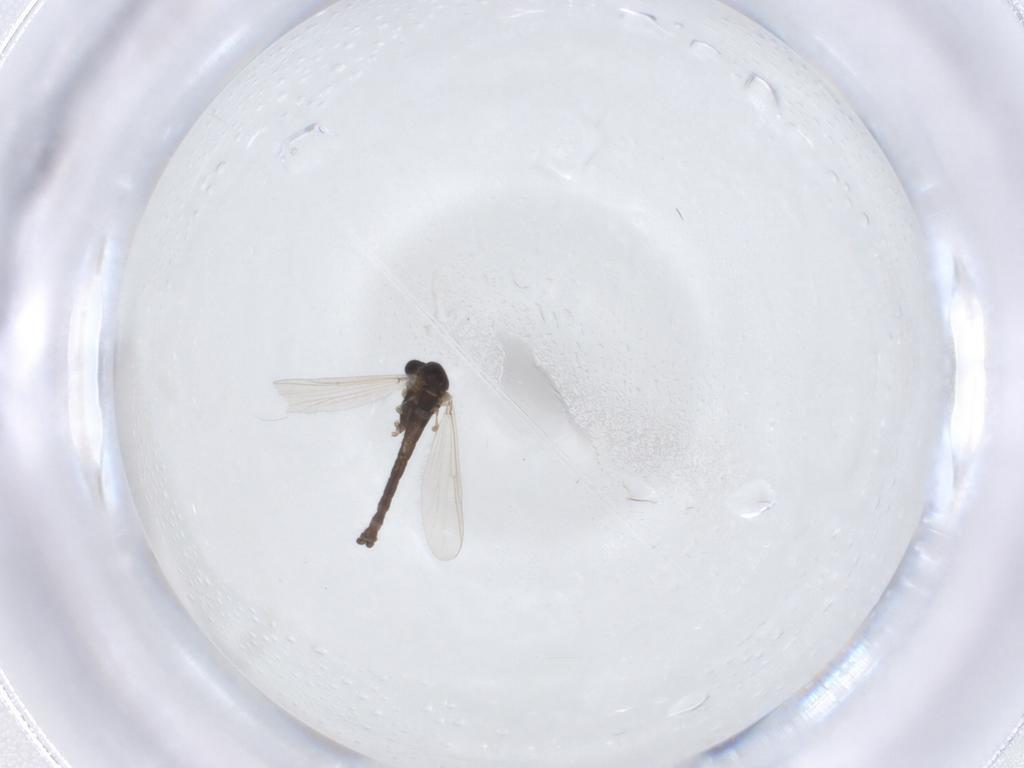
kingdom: Animalia
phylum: Arthropoda
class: Insecta
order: Diptera
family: Chironomidae
